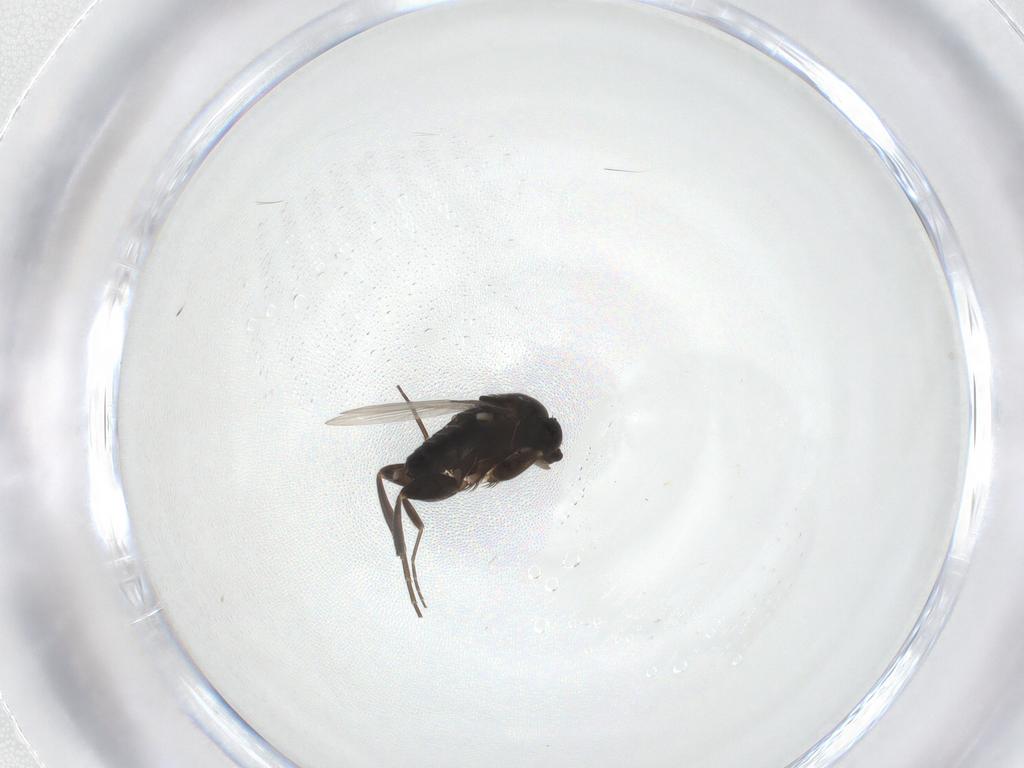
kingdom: Animalia
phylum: Arthropoda
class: Insecta
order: Diptera
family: Phoridae
